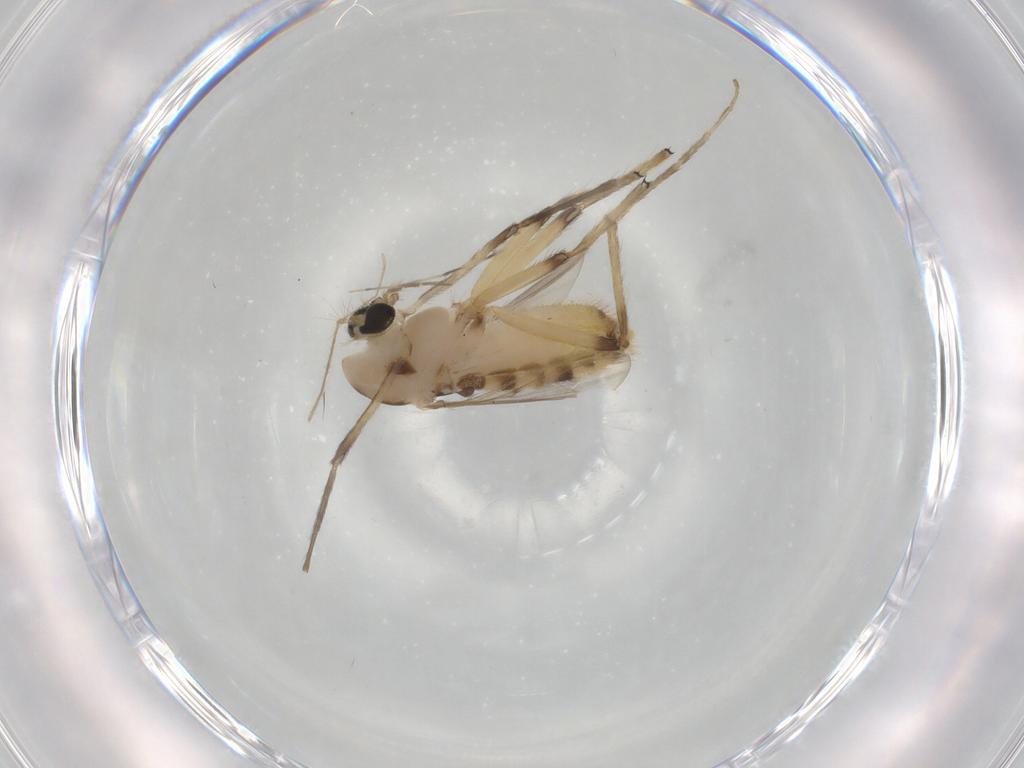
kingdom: Animalia
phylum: Arthropoda
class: Insecta
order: Diptera
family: Chironomidae
